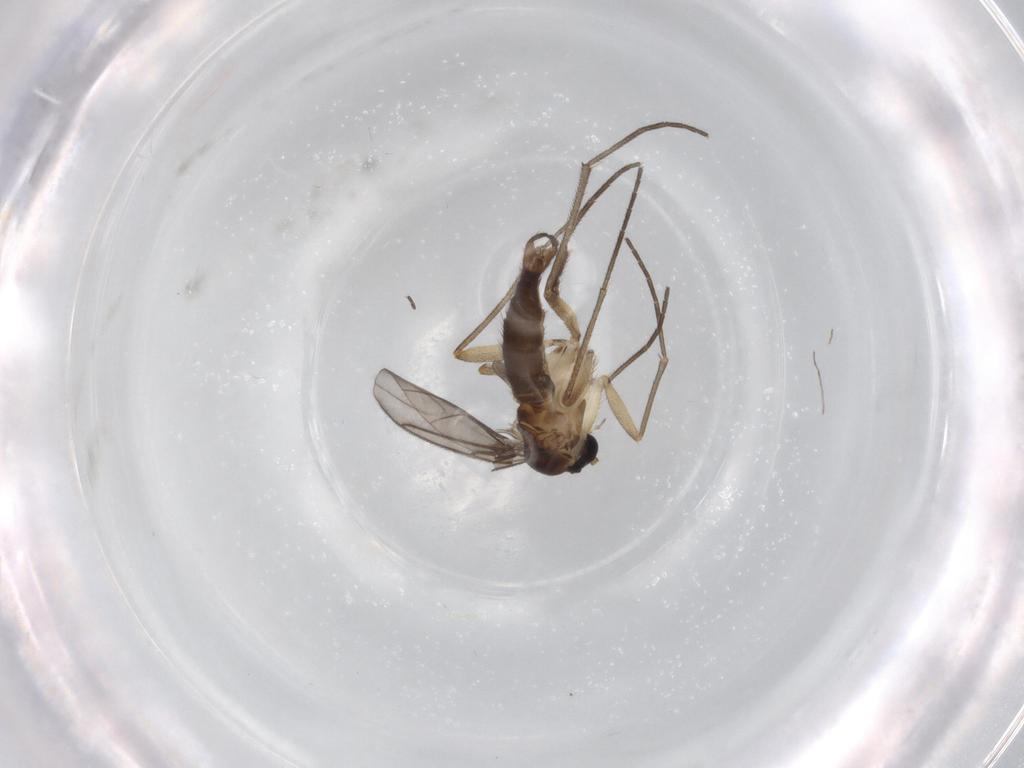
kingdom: Animalia
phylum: Arthropoda
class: Insecta
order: Diptera
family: Sciaridae
